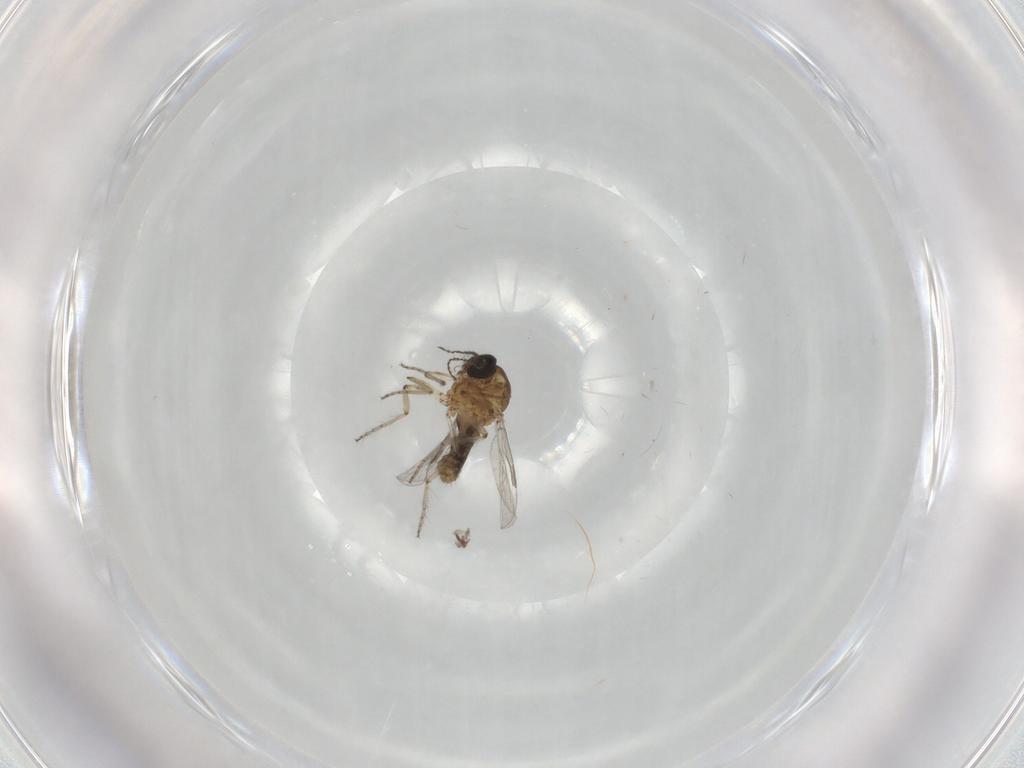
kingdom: Animalia
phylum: Arthropoda
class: Insecta
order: Diptera
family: Ceratopogonidae
